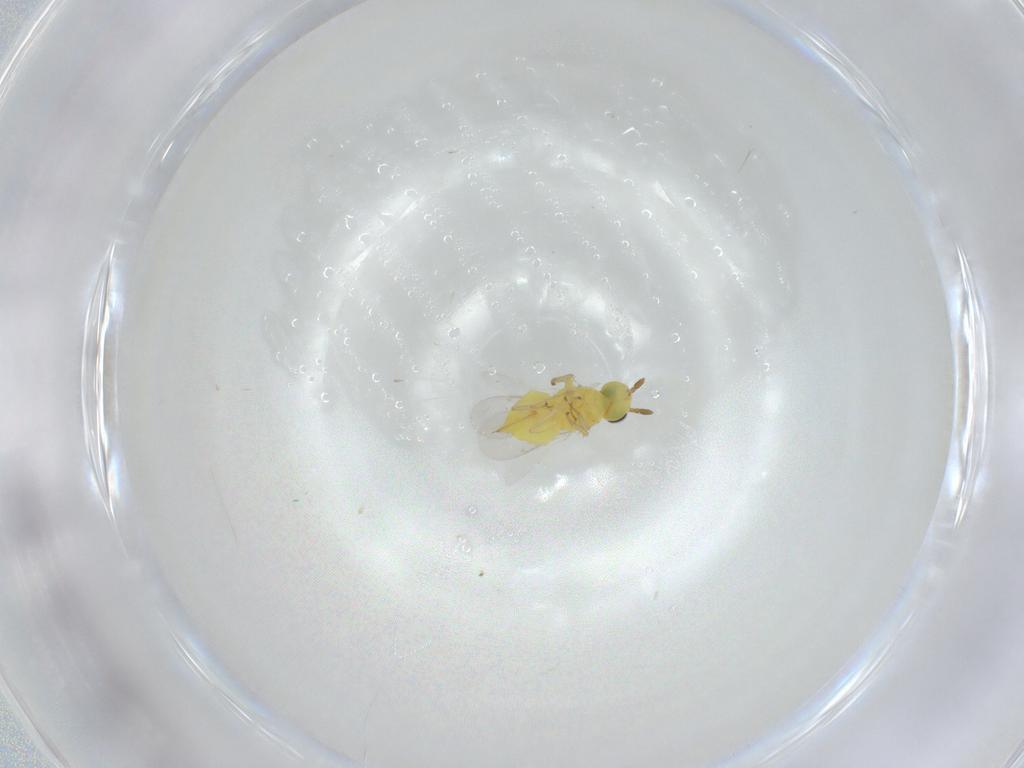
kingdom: Animalia
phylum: Arthropoda
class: Insecta
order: Hymenoptera
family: Aphelinidae
